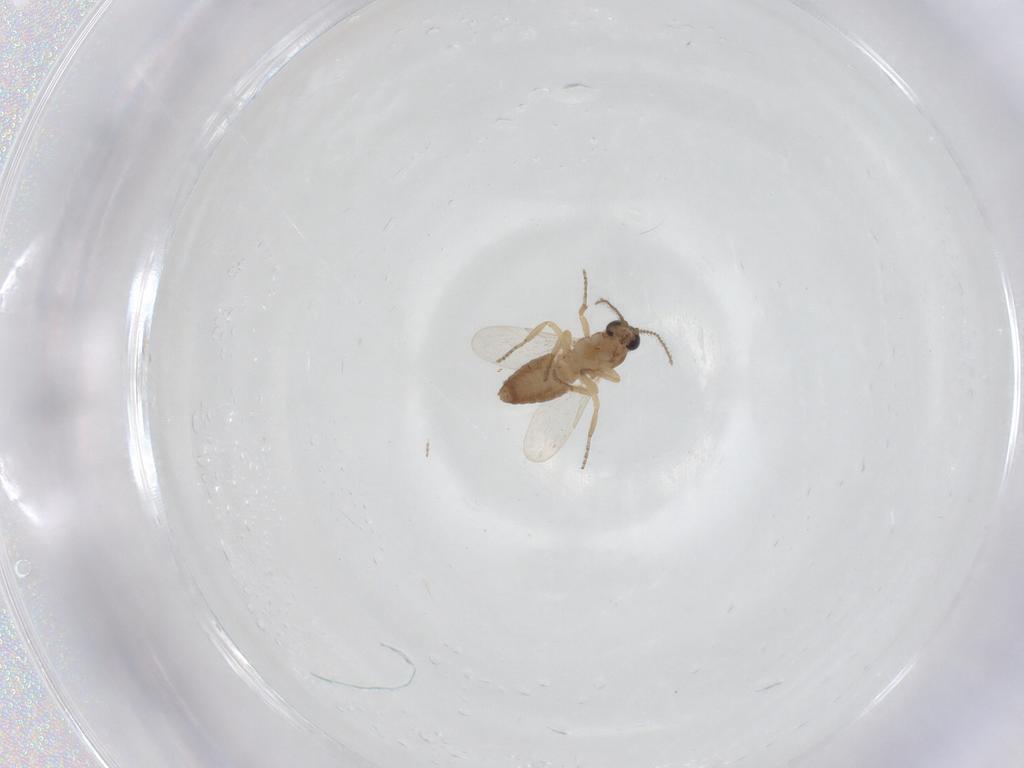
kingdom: Animalia
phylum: Arthropoda
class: Insecta
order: Diptera
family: Ceratopogonidae
